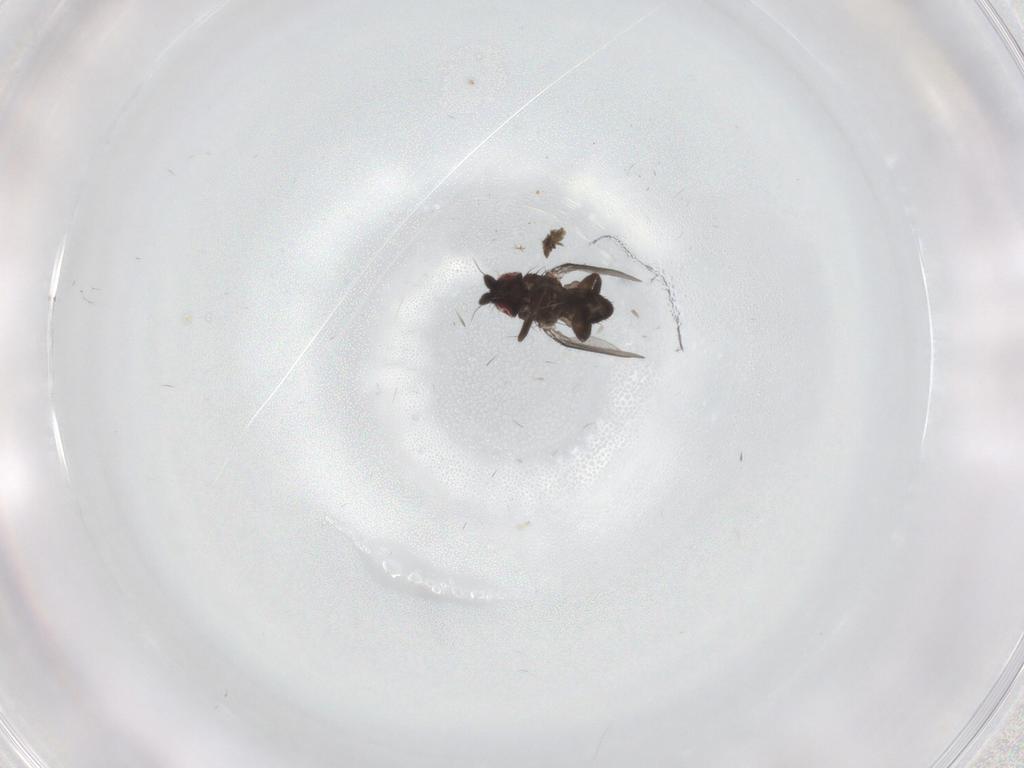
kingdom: Animalia
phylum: Arthropoda
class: Insecta
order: Diptera
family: Milichiidae
